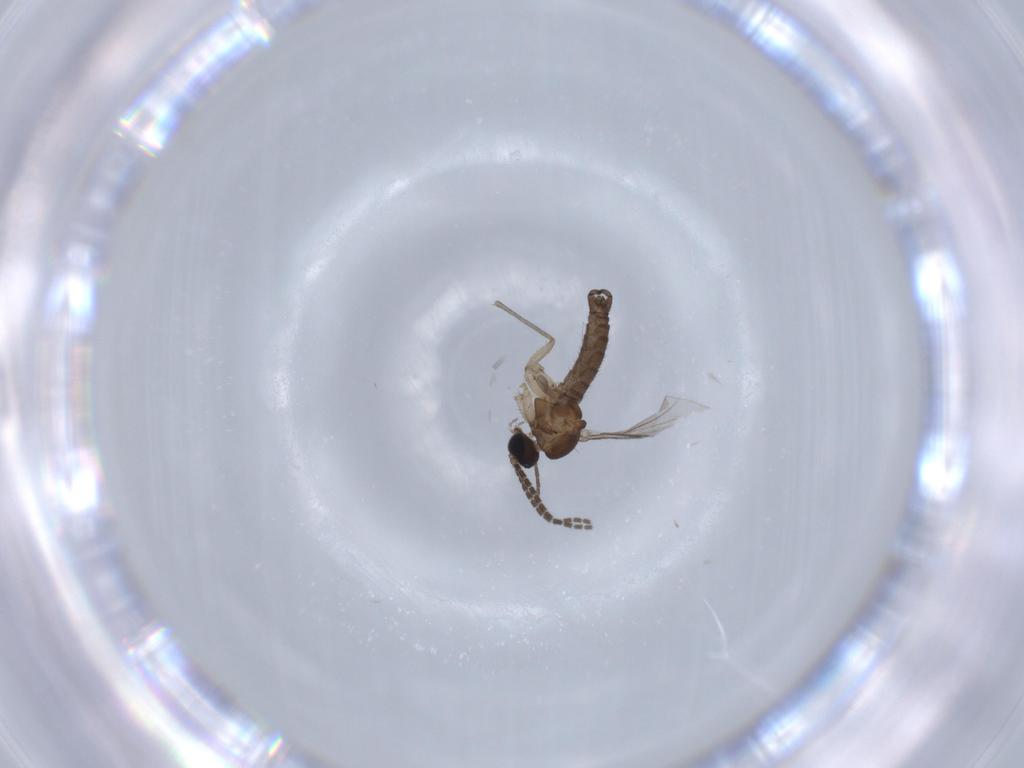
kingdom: Animalia
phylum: Arthropoda
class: Insecta
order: Diptera
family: Sciaridae
